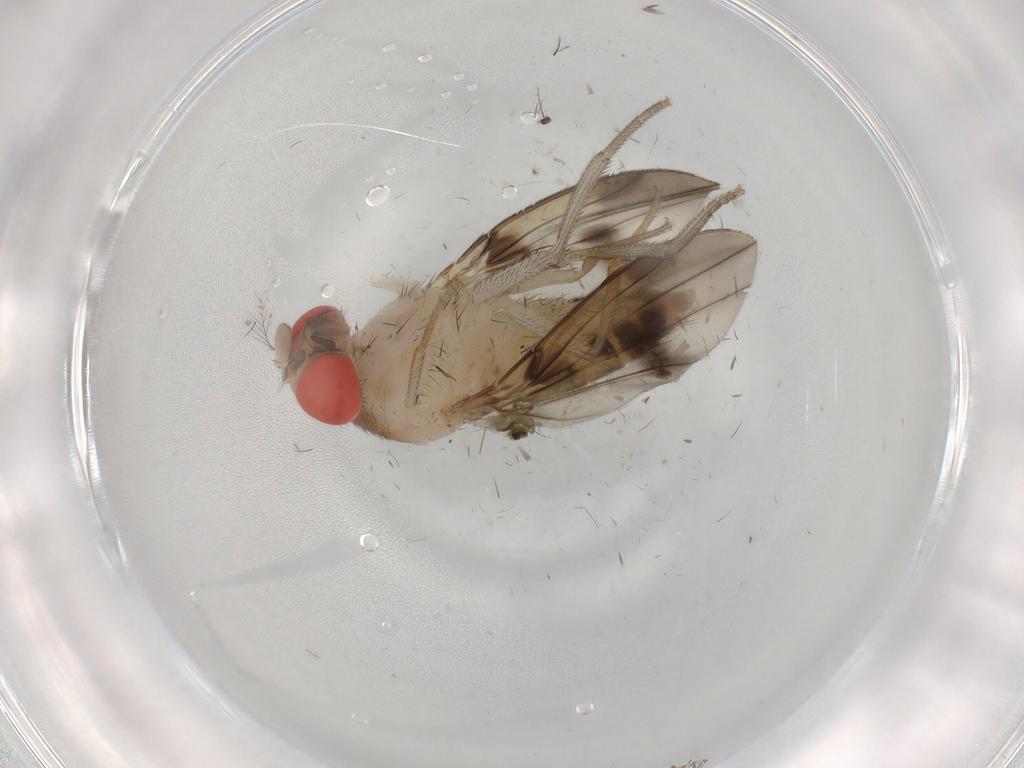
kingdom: Animalia
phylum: Arthropoda
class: Insecta
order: Diptera
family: Drosophilidae
